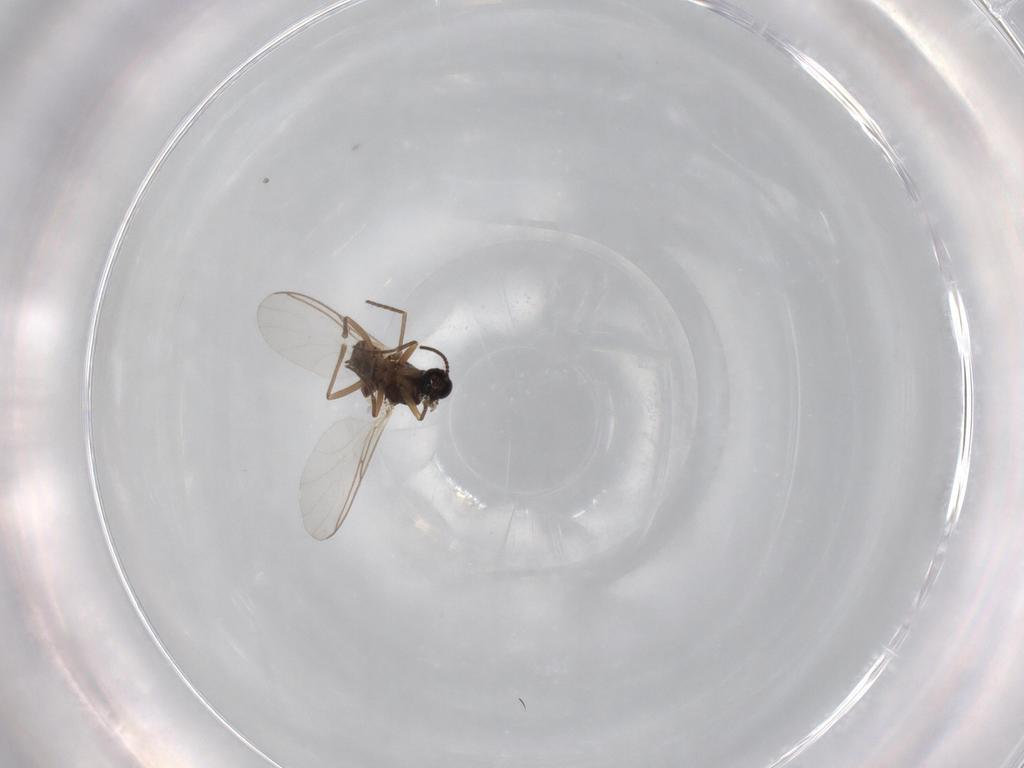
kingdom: Animalia
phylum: Arthropoda
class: Insecta
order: Diptera
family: Sciaridae
